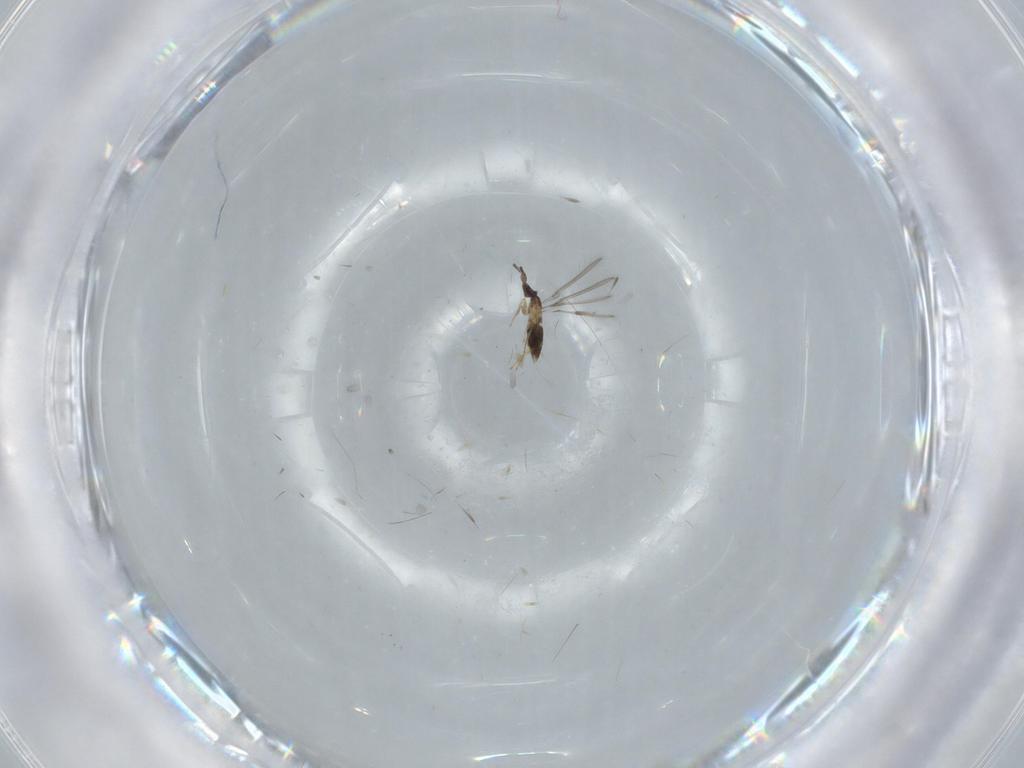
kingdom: Animalia
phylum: Arthropoda
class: Insecta
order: Hymenoptera
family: Mymaridae
